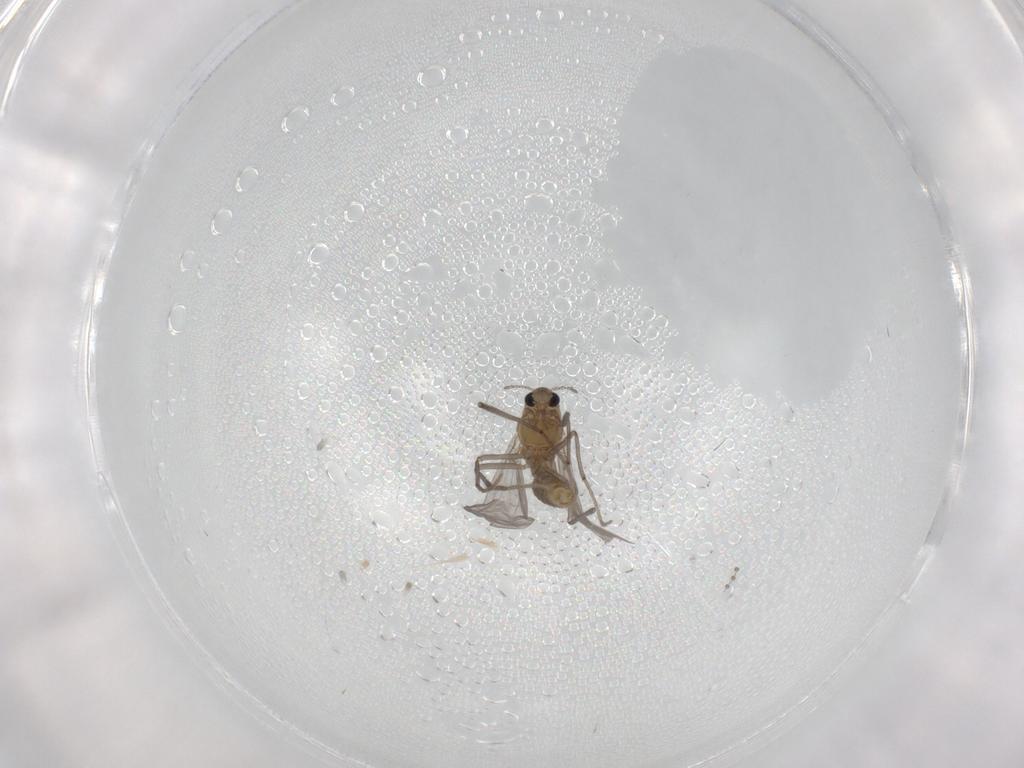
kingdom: Animalia
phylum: Arthropoda
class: Insecta
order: Diptera
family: Chironomidae
